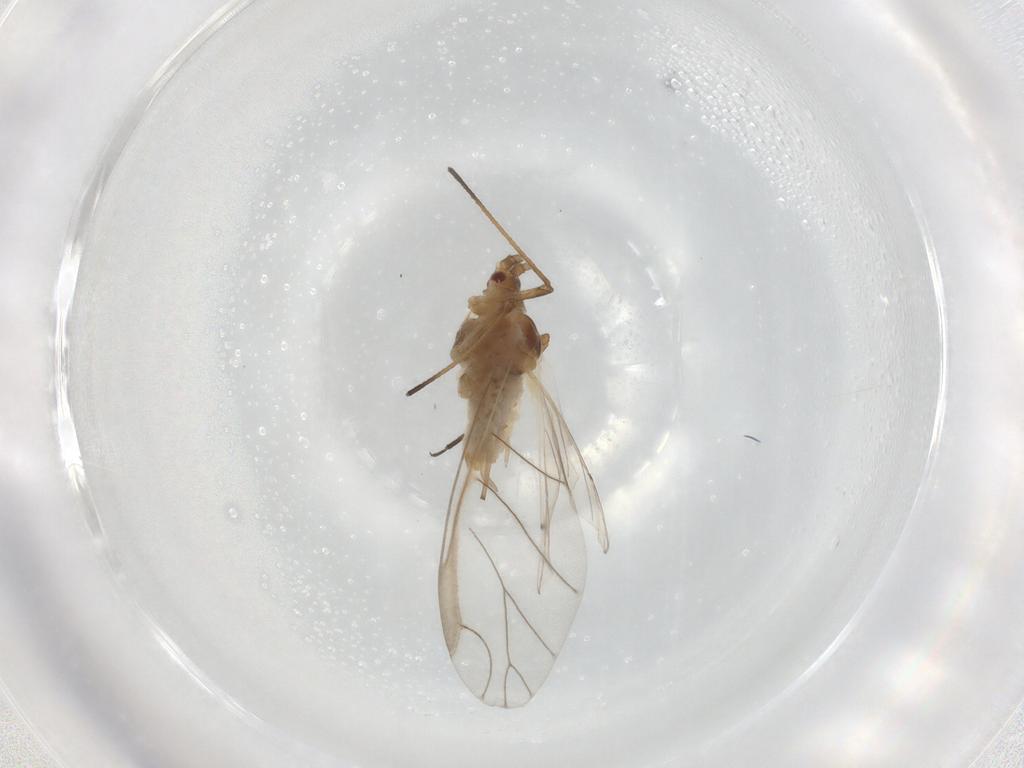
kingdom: Animalia
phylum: Arthropoda
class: Insecta
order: Hemiptera
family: Aphididae
